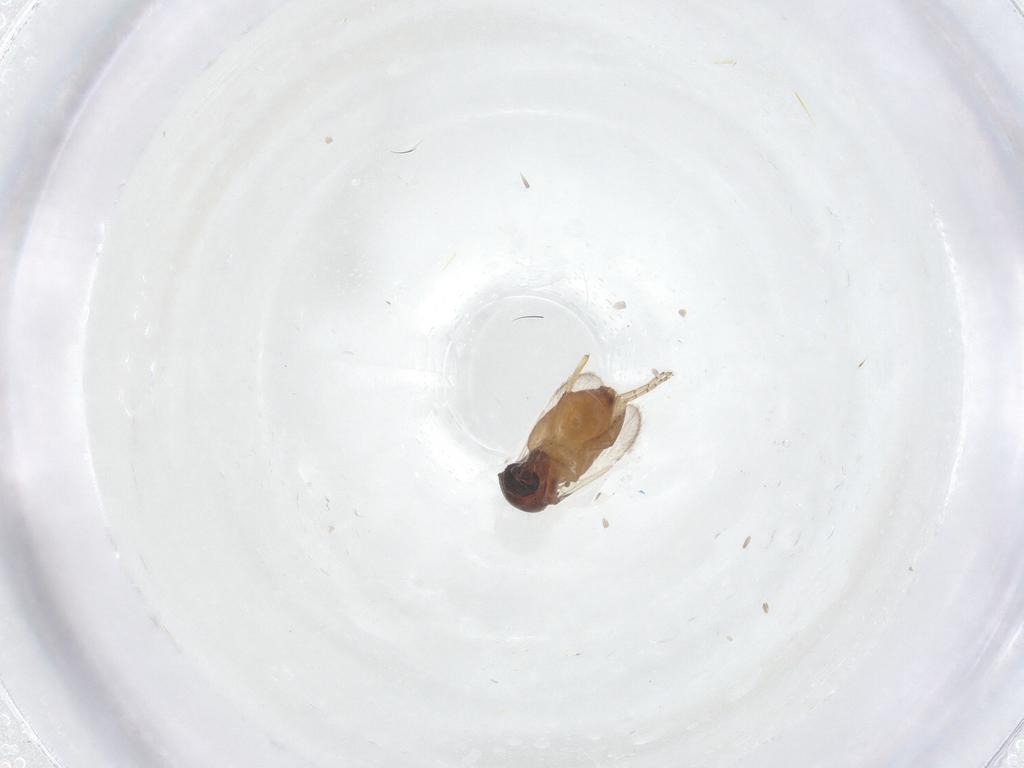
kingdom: Animalia
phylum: Arthropoda
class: Insecta
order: Diptera
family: Ceratopogonidae
